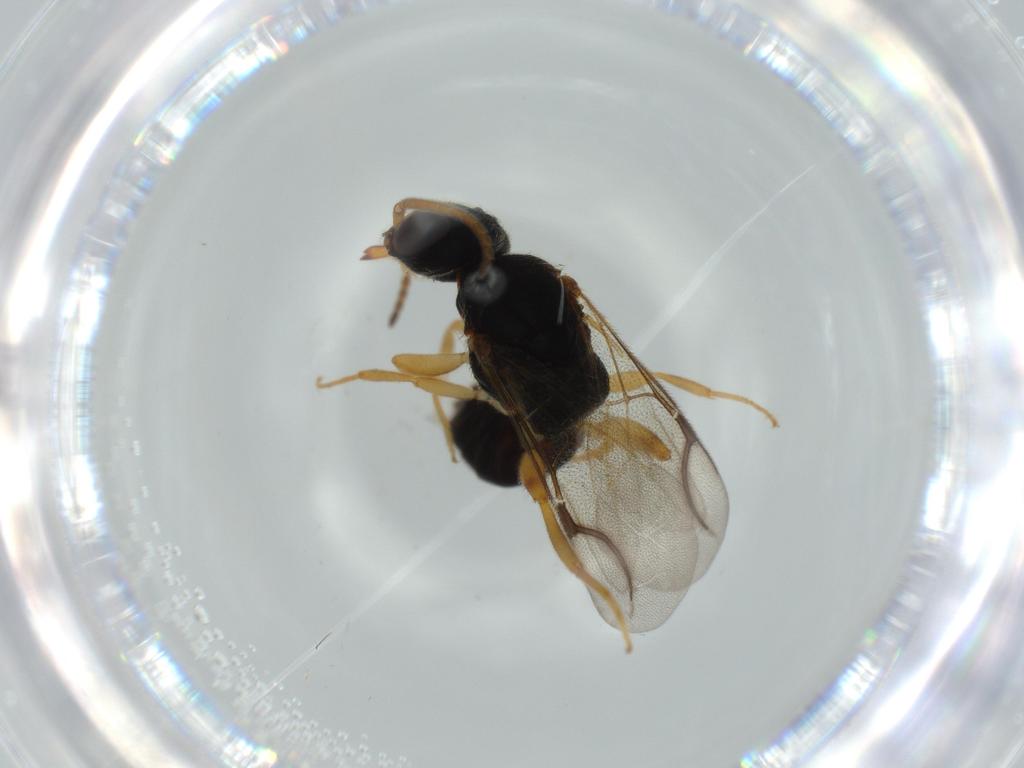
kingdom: Animalia
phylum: Arthropoda
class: Insecta
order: Hymenoptera
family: Bethylidae
